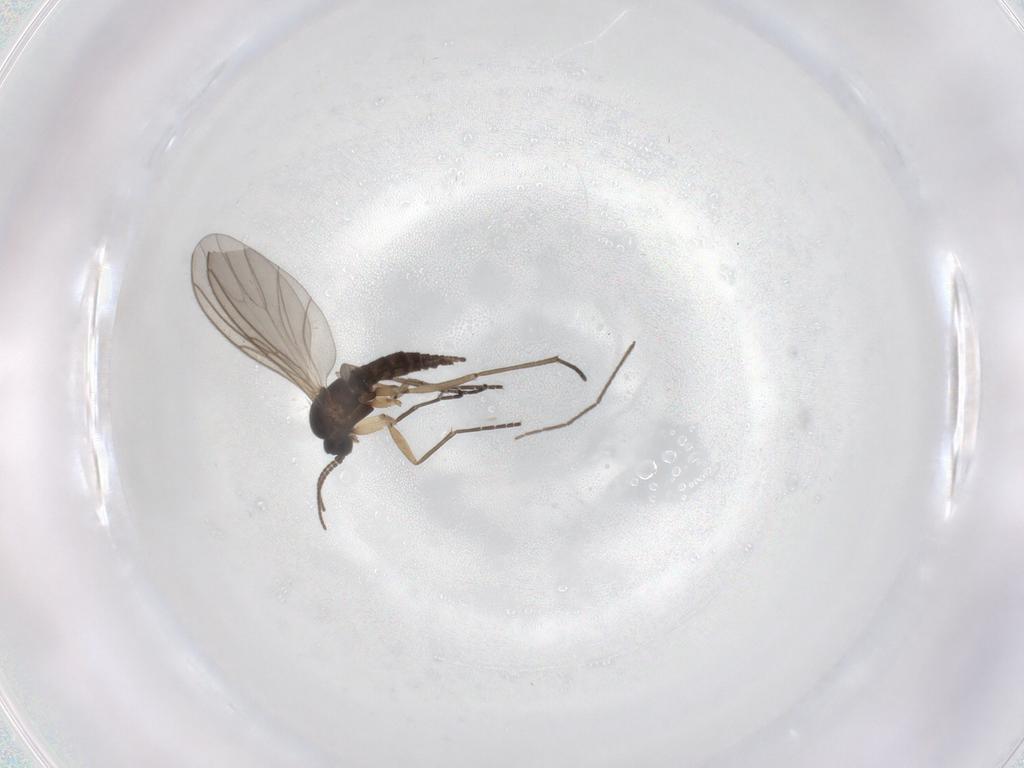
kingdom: Animalia
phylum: Arthropoda
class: Insecta
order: Diptera
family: Sciaridae
